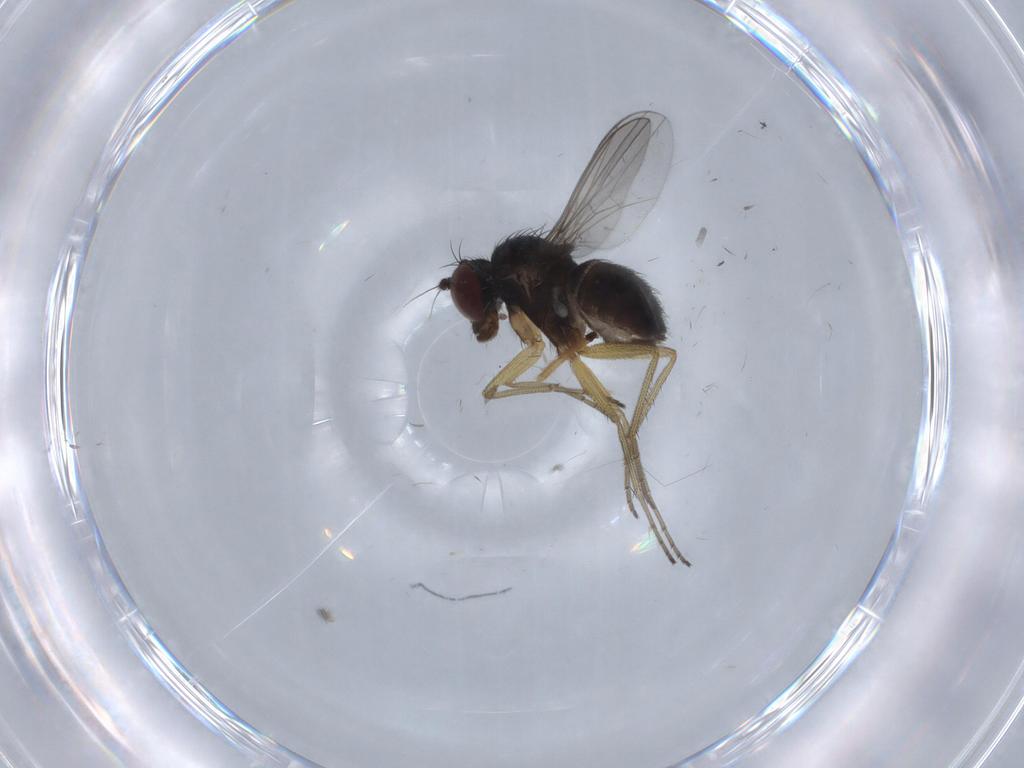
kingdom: Animalia
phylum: Arthropoda
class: Insecta
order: Diptera
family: Dolichopodidae
